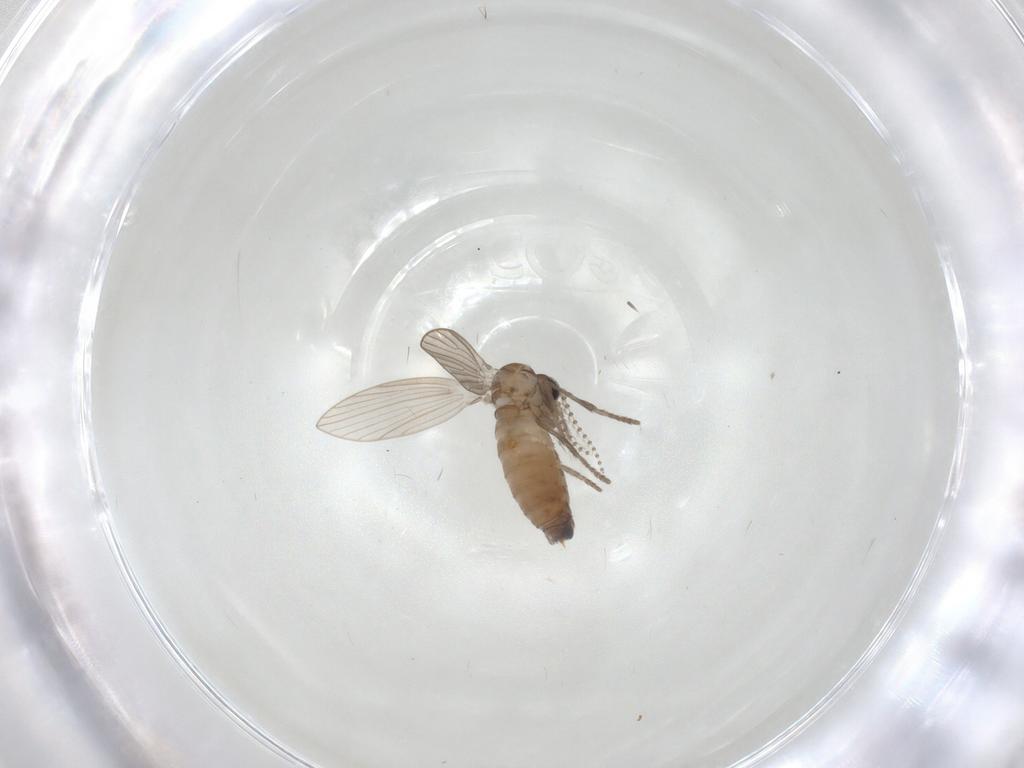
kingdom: Animalia
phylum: Arthropoda
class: Insecta
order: Diptera
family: Psychodidae
